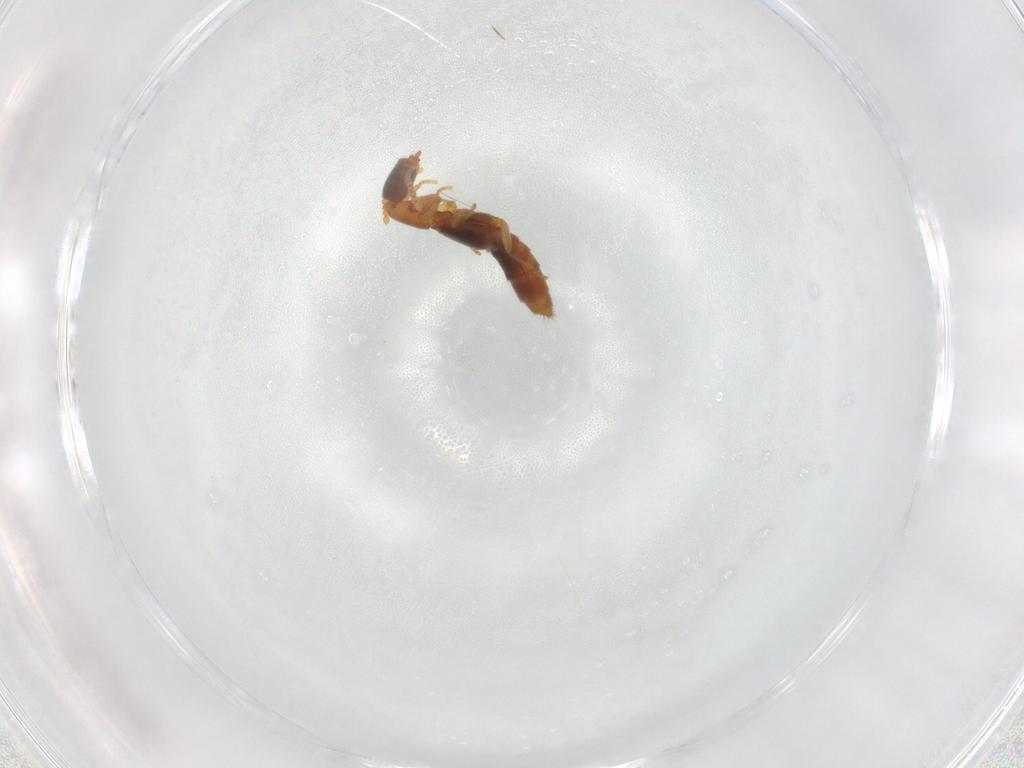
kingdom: Animalia
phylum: Arthropoda
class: Insecta
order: Coleoptera
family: Carabidae
